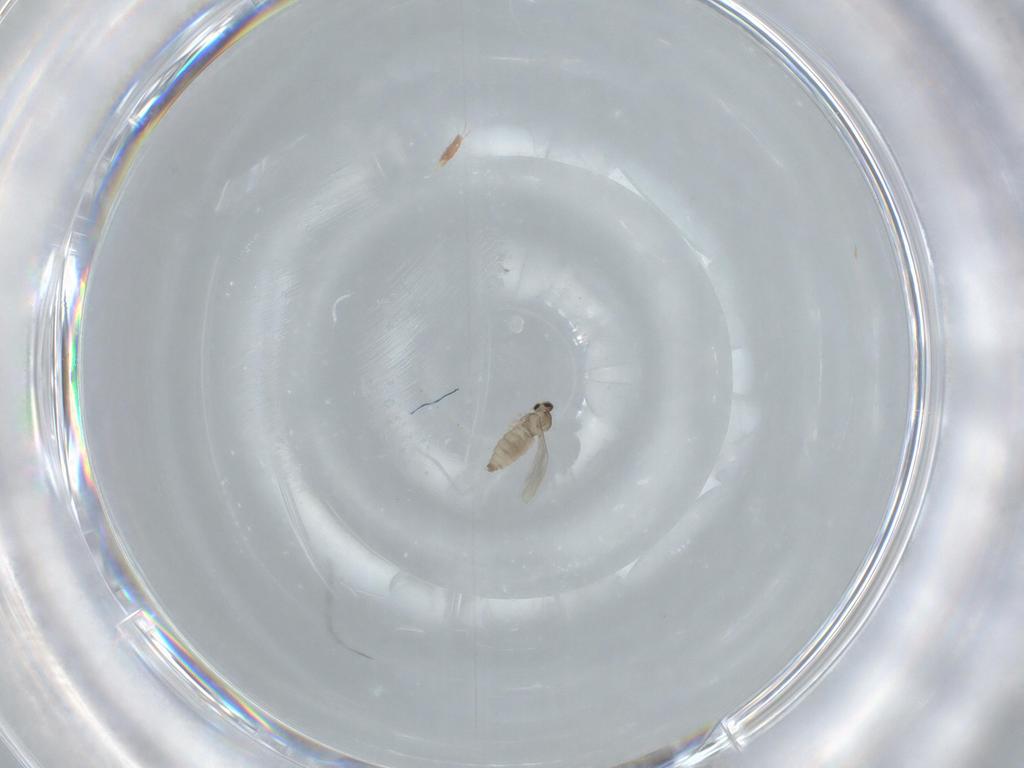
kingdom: Animalia
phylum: Arthropoda
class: Insecta
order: Diptera
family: Cecidomyiidae
